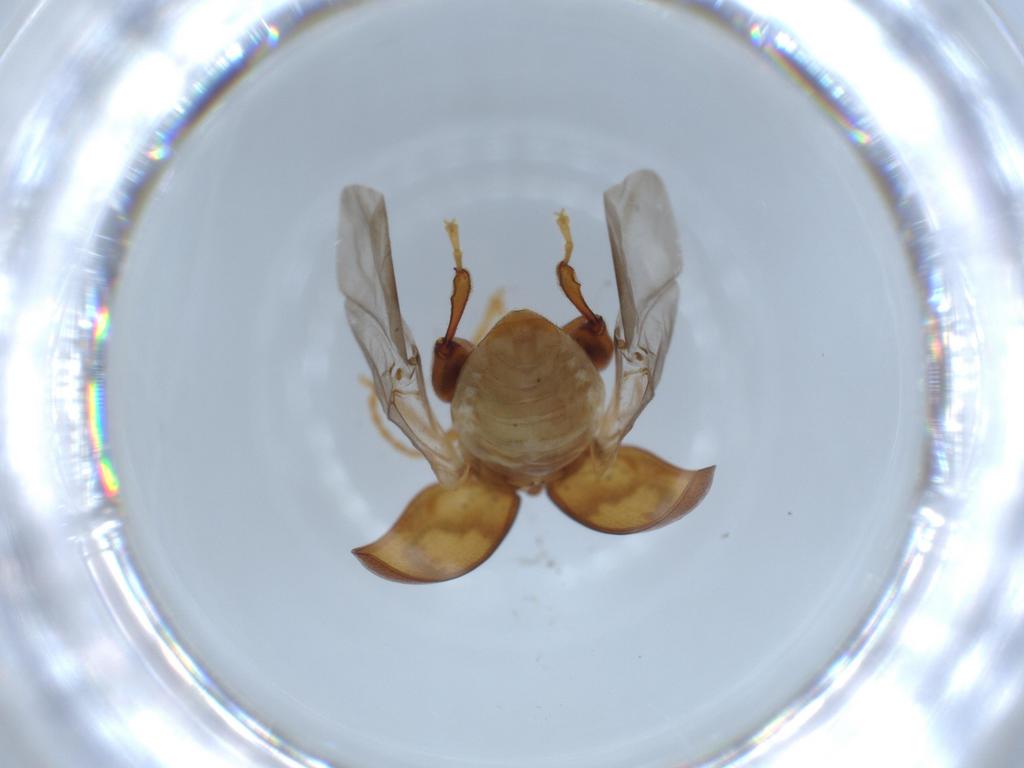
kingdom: Animalia
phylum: Arthropoda
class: Insecta
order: Coleoptera
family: Chrysomelidae
